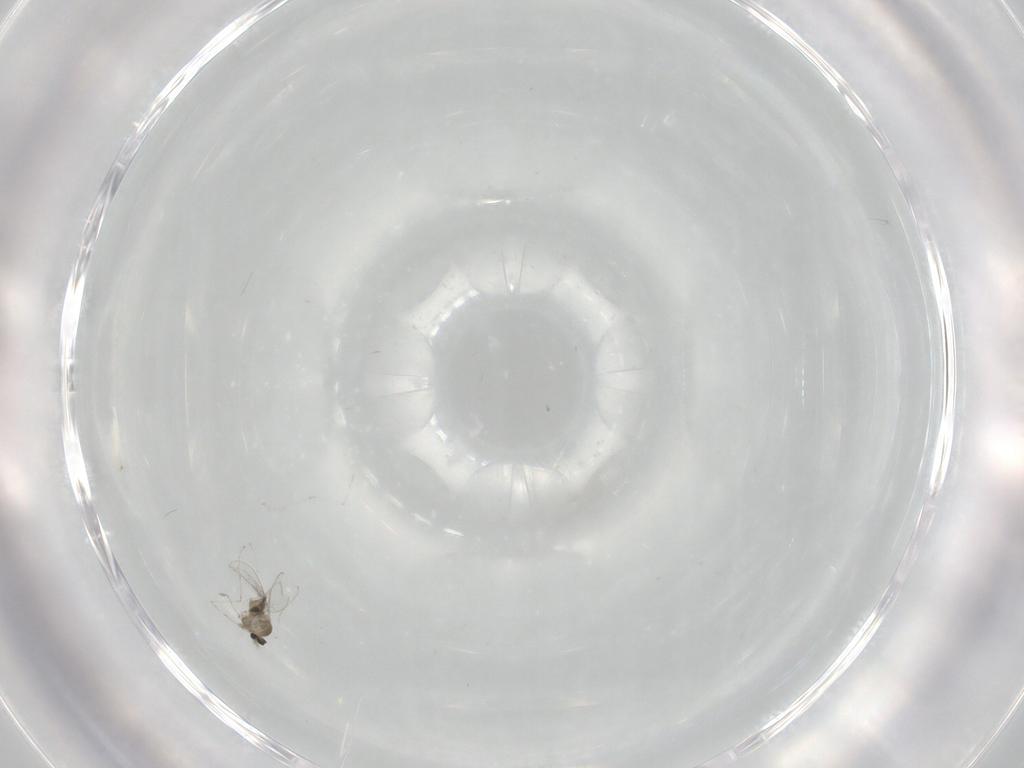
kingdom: Animalia
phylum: Arthropoda
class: Insecta
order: Diptera
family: Cecidomyiidae
